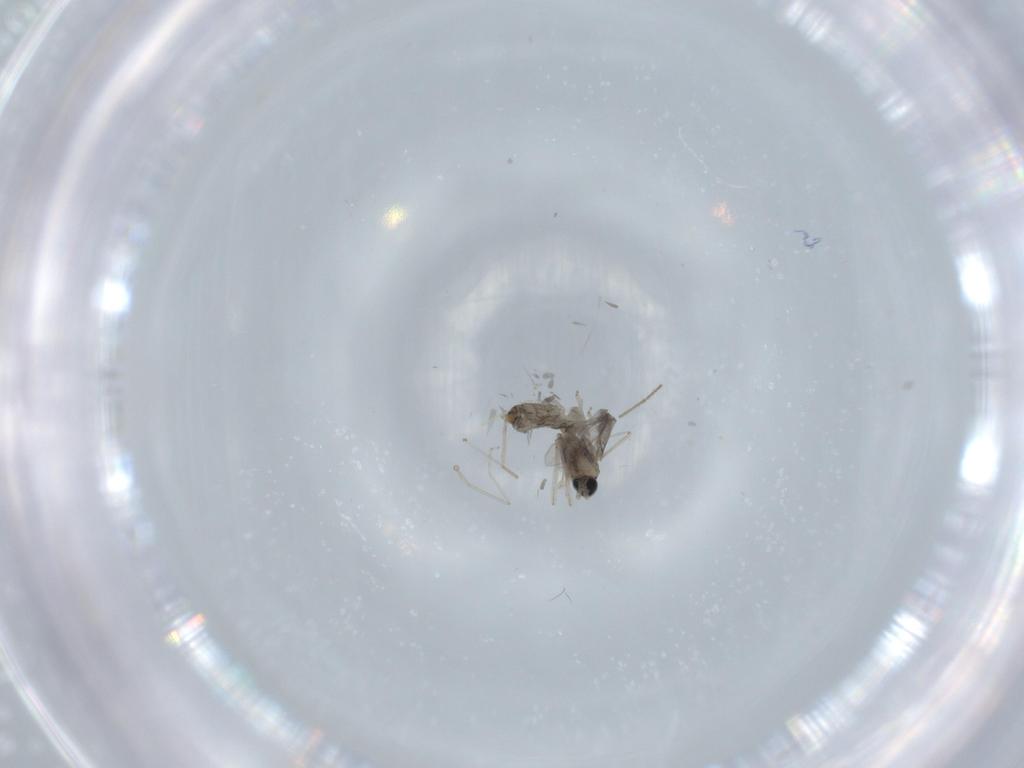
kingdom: Animalia
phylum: Arthropoda
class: Insecta
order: Diptera
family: Cecidomyiidae
